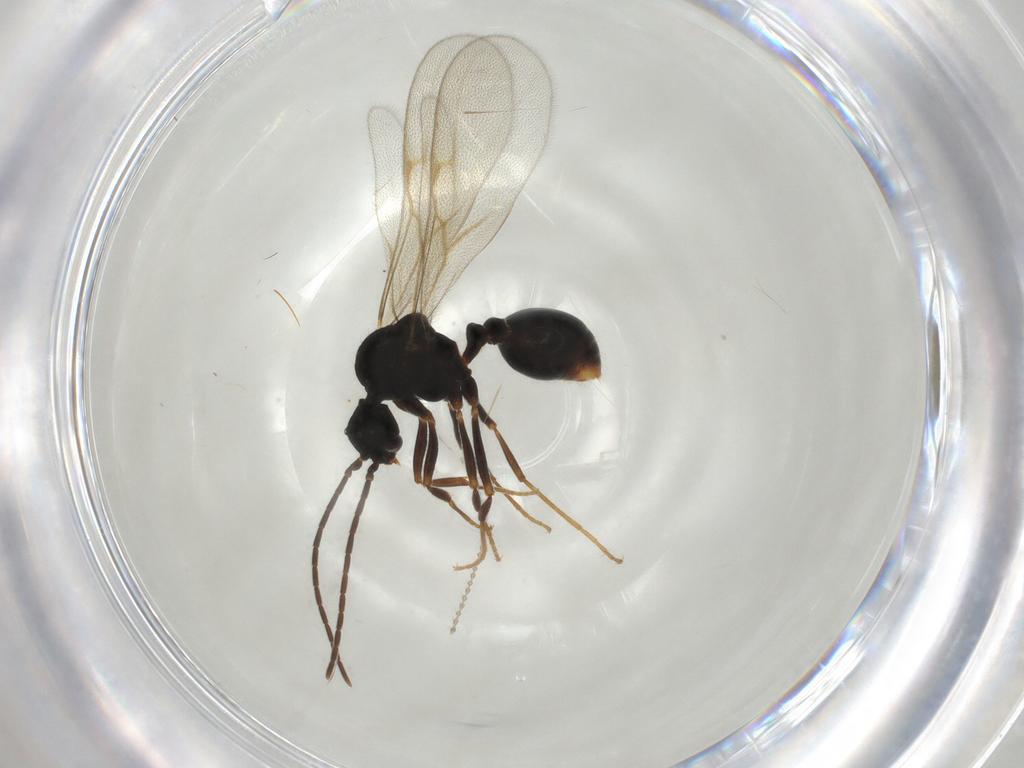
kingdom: Animalia
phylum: Arthropoda
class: Insecta
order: Hymenoptera
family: Formicidae
